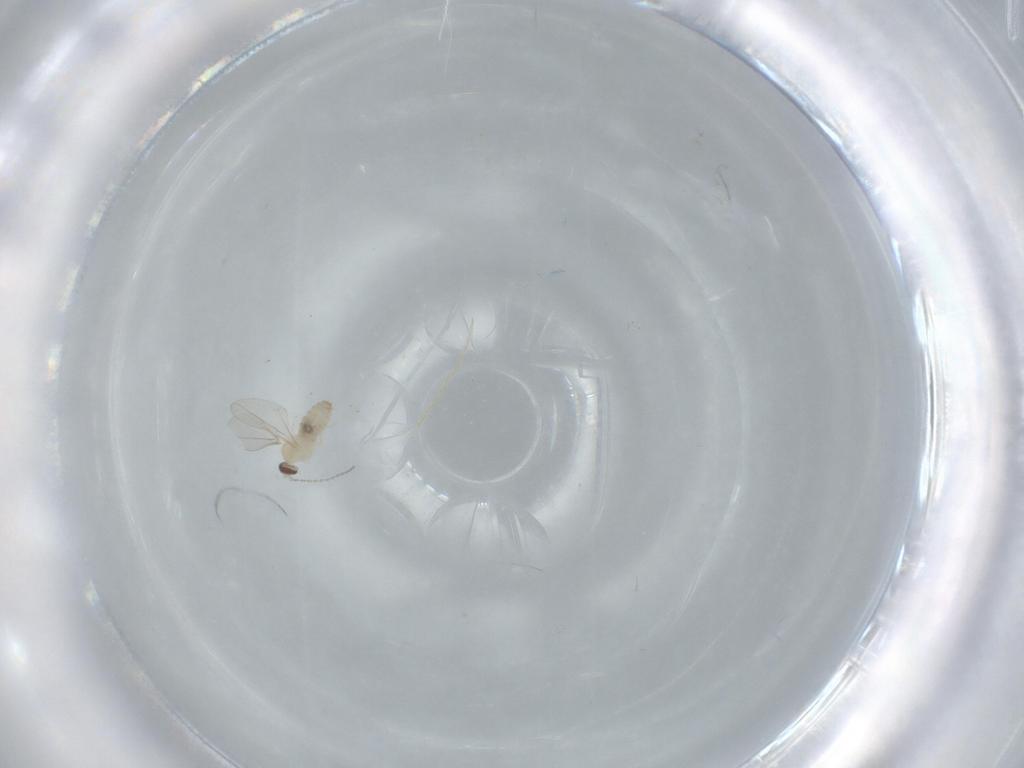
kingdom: Animalia
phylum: Arthropoda
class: Insecta
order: Diptera
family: Cecidomyiidae
